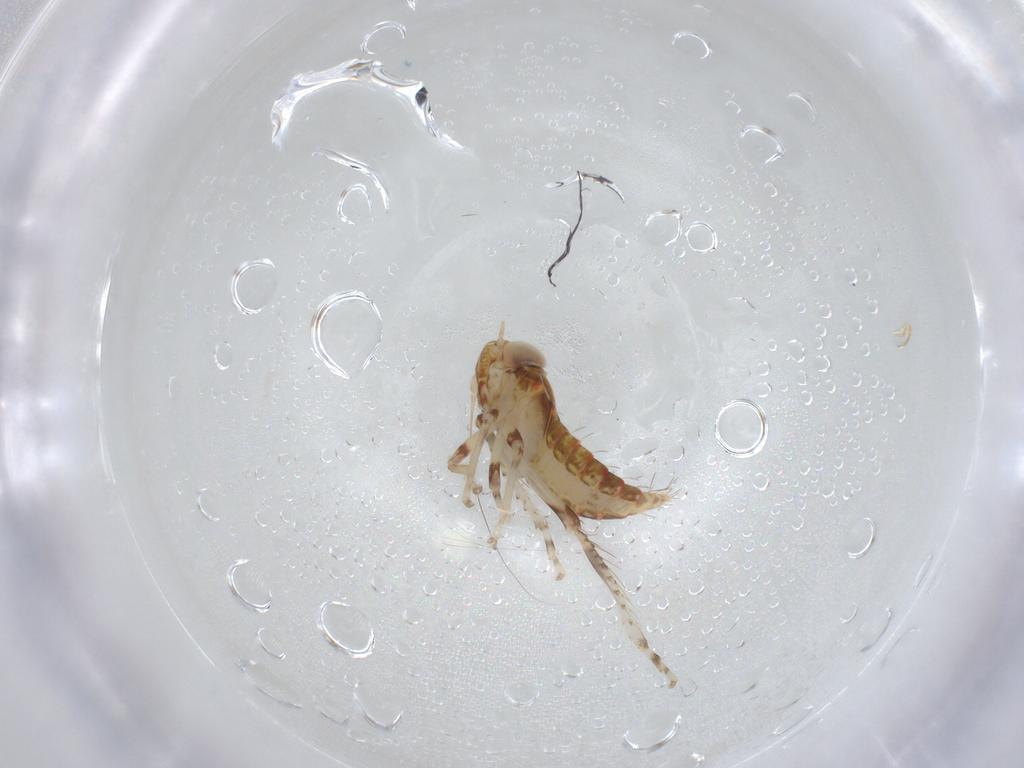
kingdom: Animalia
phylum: Arthropoda
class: Insecta
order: Hemiptera
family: Cicadellidae
